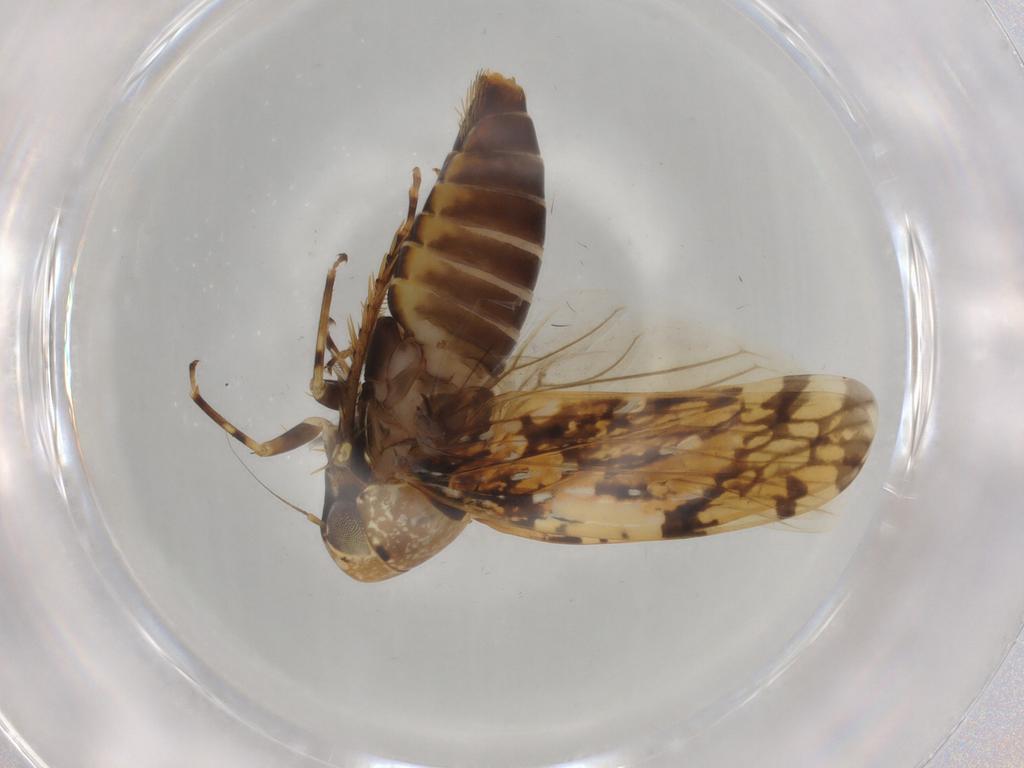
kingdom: Animalia
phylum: Arthropoda
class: Insecta
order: Hemiptera
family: Cicadellidae
